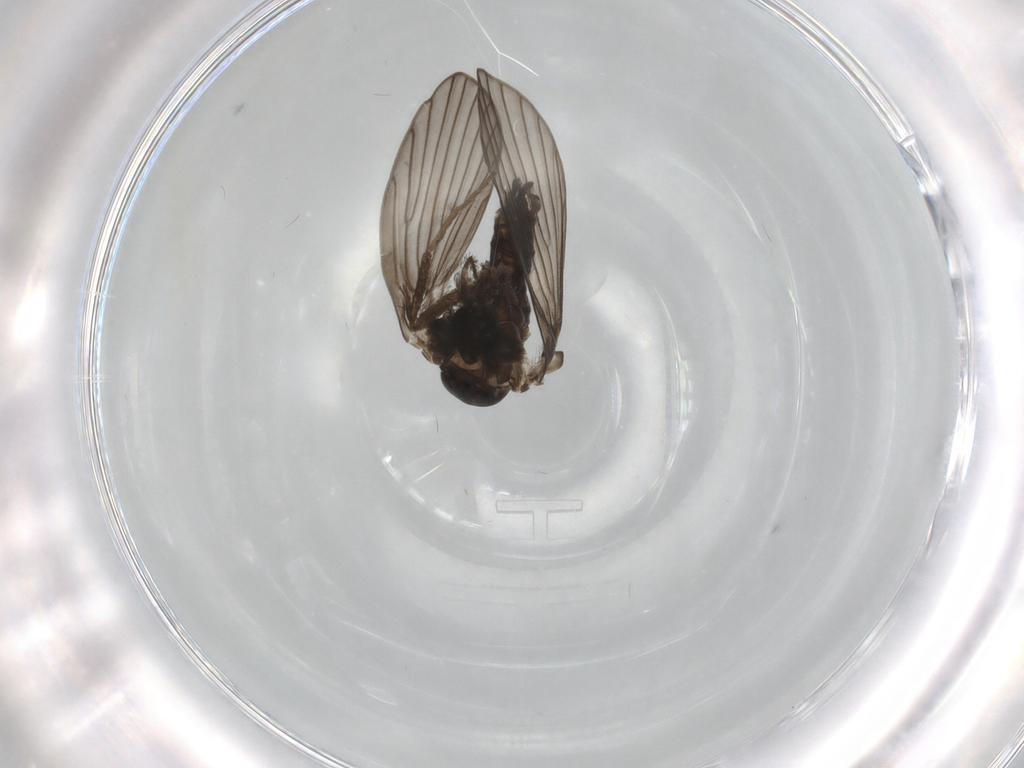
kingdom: Animalia
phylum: Arthropoda
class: Insecta
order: Diptera
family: Psychodidae
